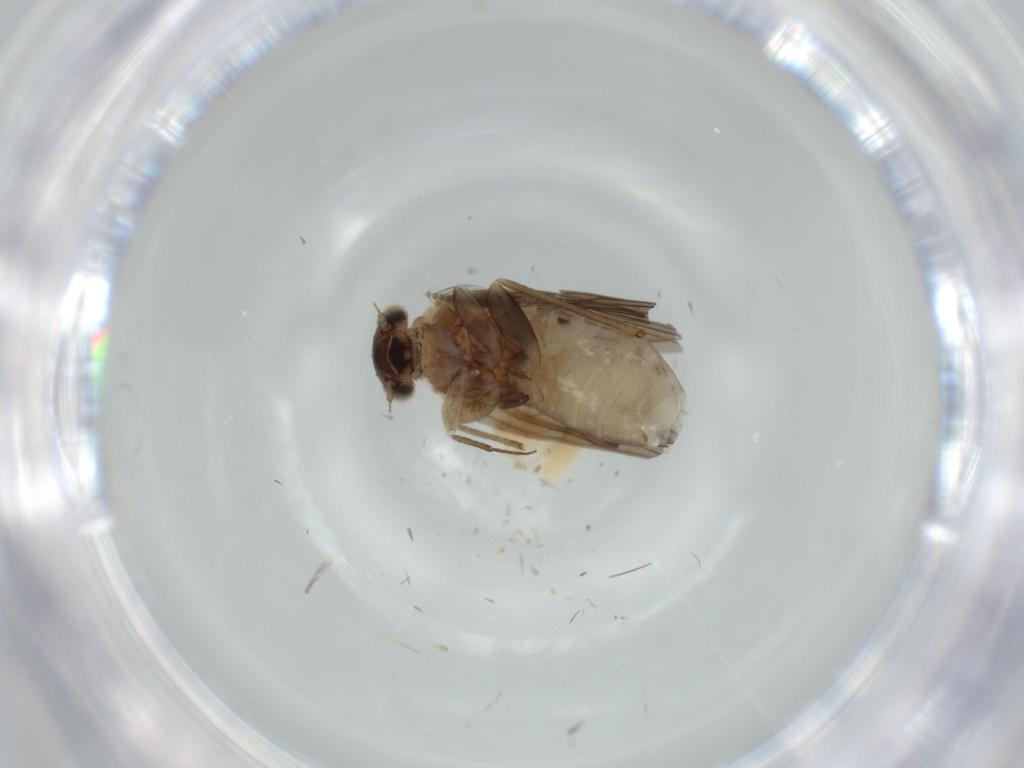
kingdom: Animalia
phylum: Arthropoda
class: Insecta
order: Psocodea
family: Lepidopsocidae
